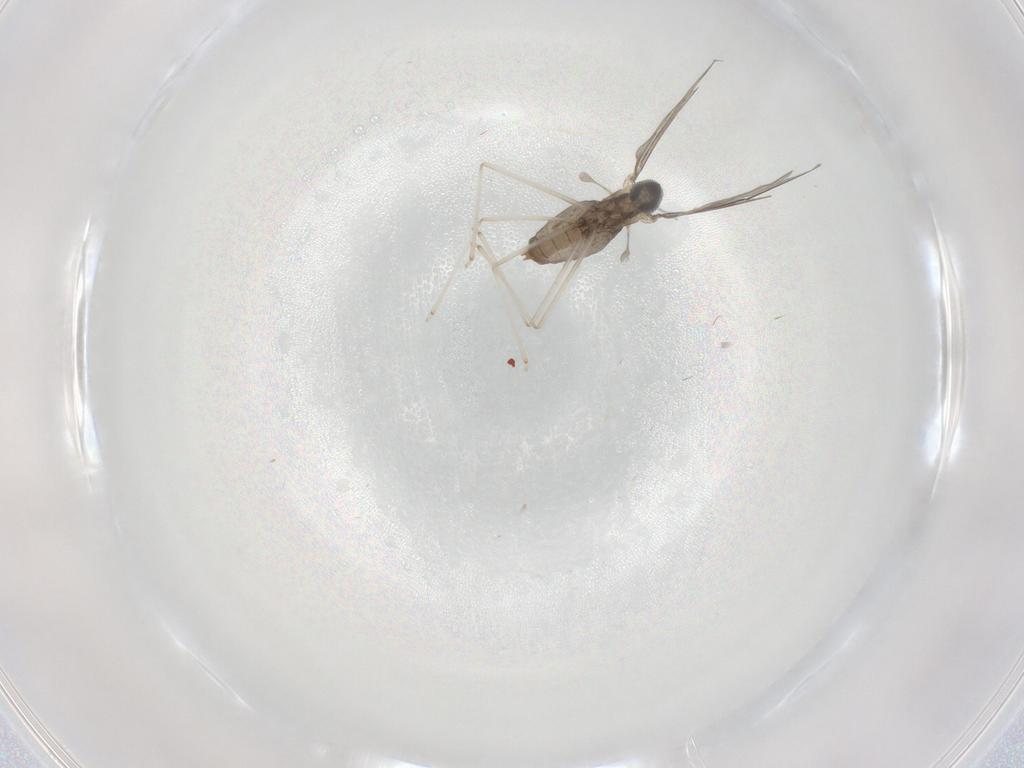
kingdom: Animalia
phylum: Arthropoda
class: Insecta
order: Diptera
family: Cecidomyiidae
